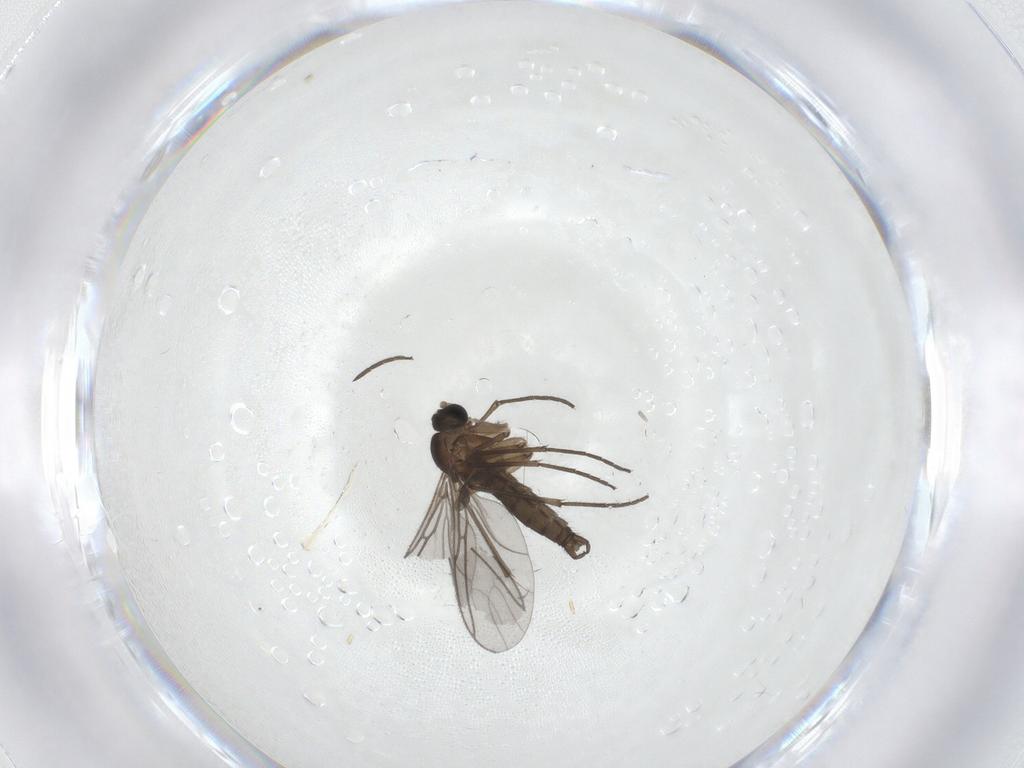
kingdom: Animalia
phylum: Arthropoda
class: Insecta
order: Diptera
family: Sciaridae
